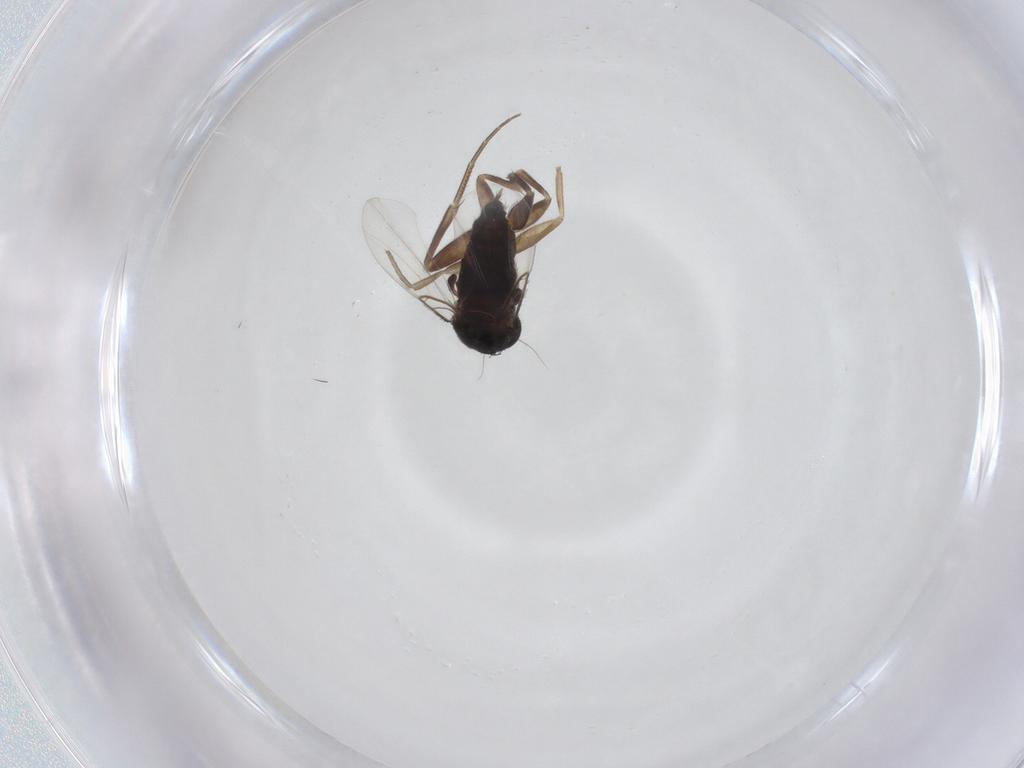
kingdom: Animalia
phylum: Arthropoda
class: Insecta
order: Diptera
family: Phoridae
